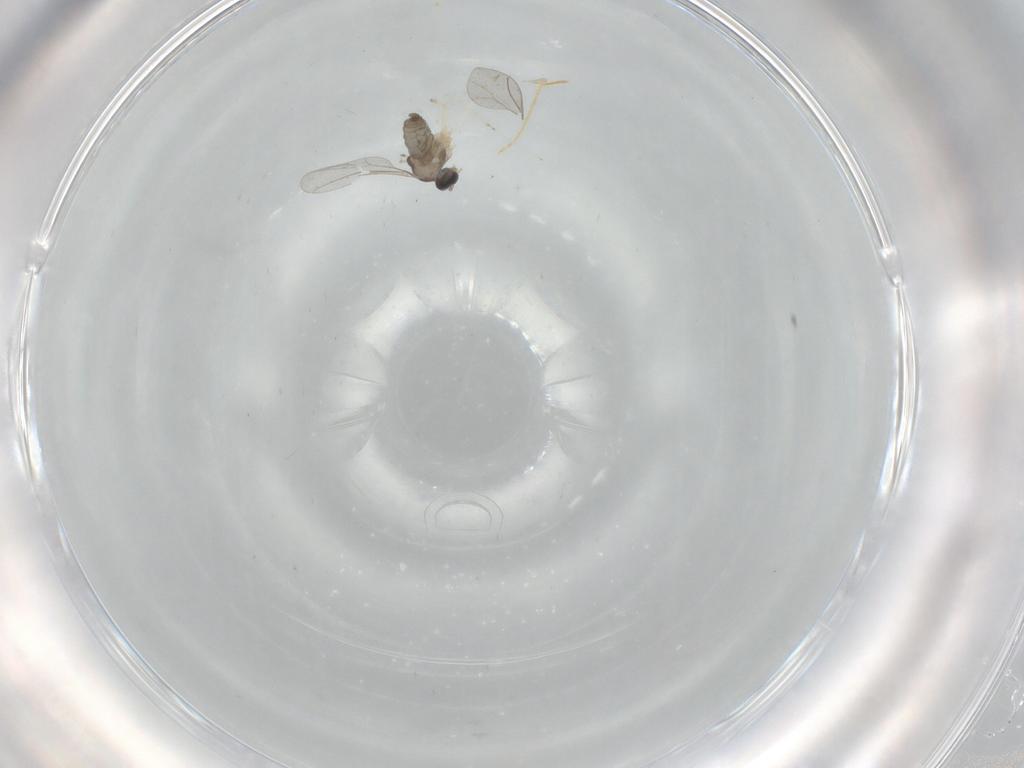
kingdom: Animalia
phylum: Arthropoda
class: Insecta
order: Diptera
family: Cecidomyiidae
